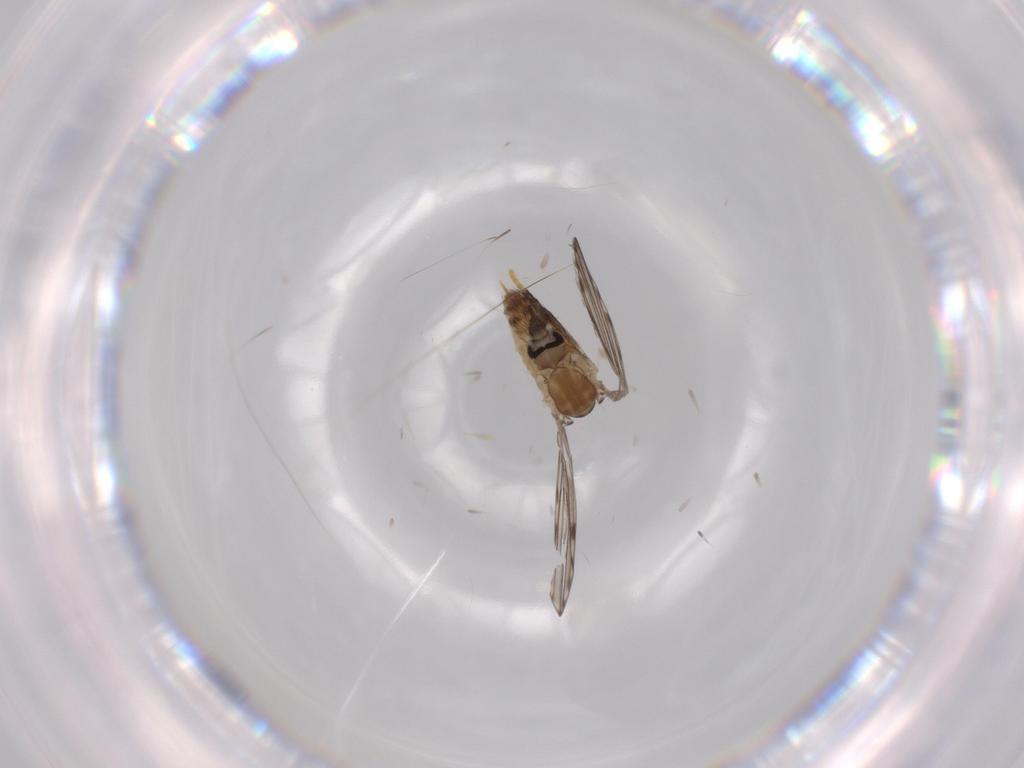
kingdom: Animalia
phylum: Arthropoda
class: Insecta
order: Diptera
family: Psychodidae
